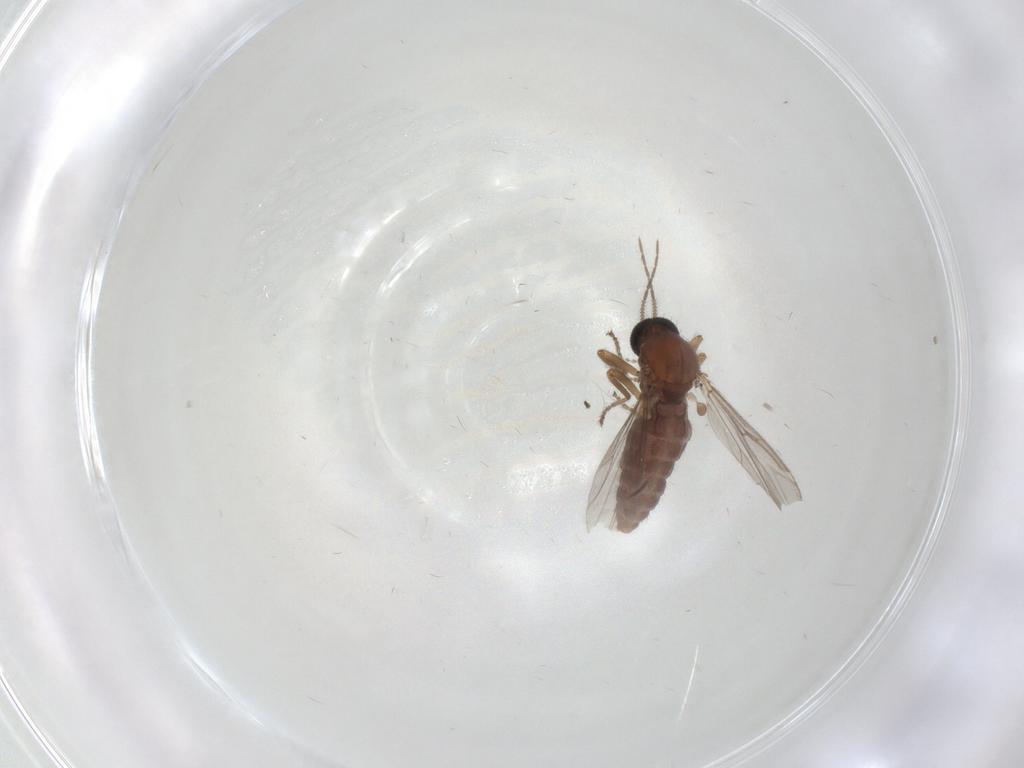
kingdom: Animalia
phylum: Arthropoda
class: Insecta
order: Diptera
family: Ceratopogonidae
